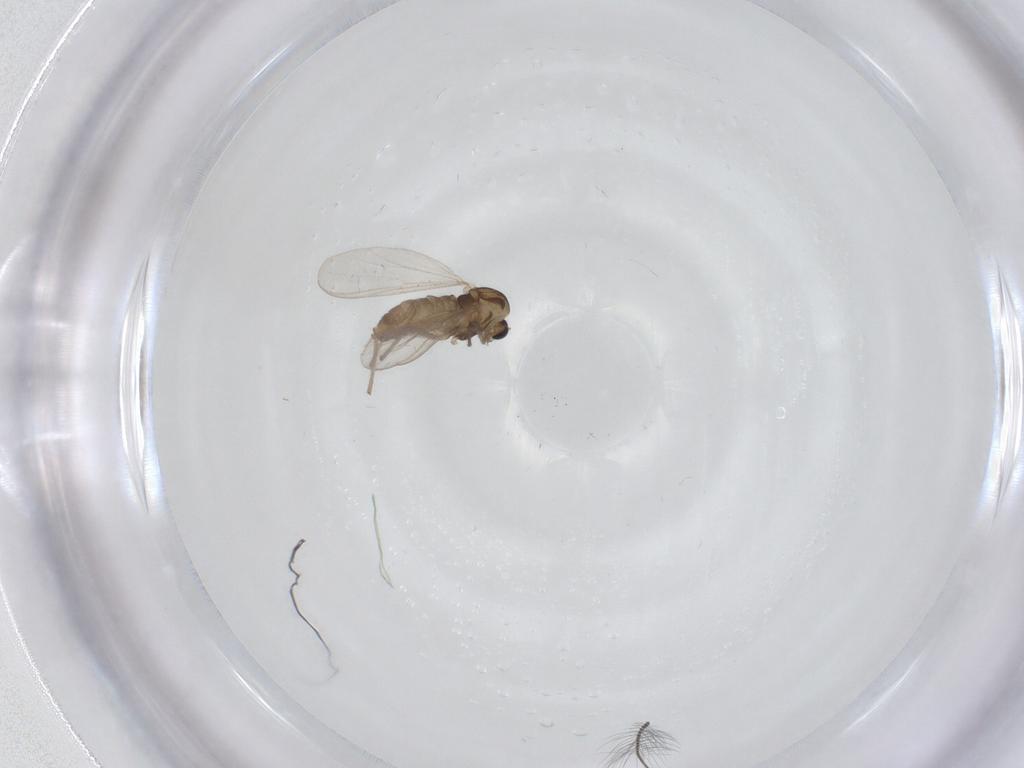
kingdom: Animalia
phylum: Arthropoda
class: Insecta
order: Diptera
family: Chironomidae
